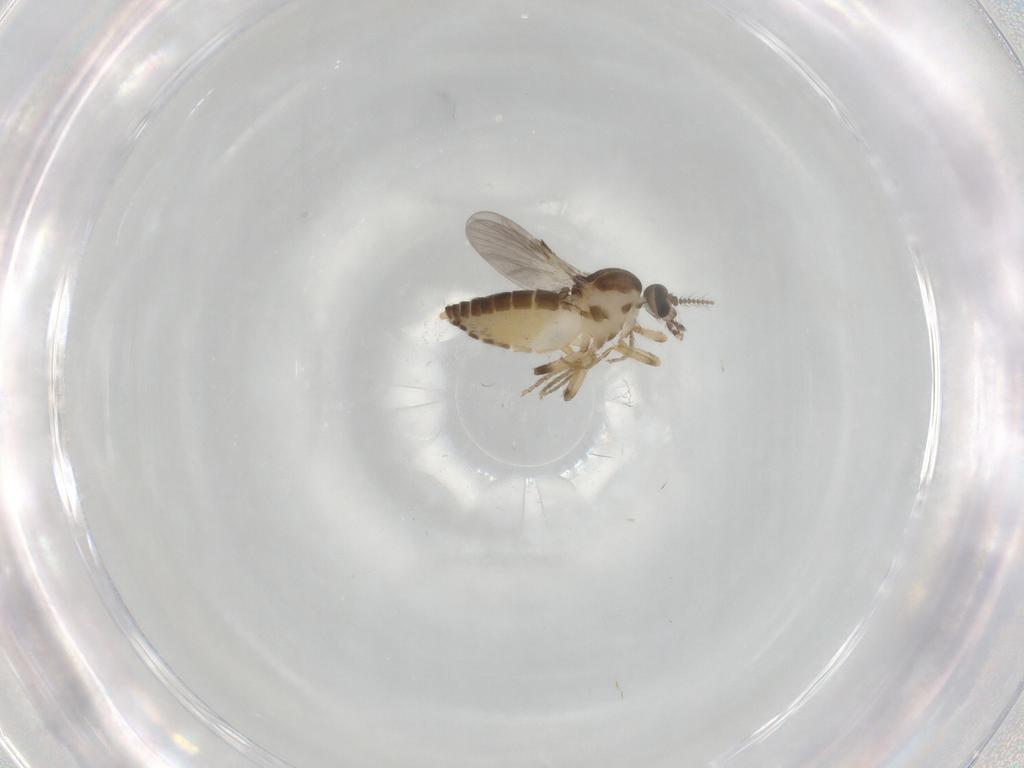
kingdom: Animalia
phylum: Arthropoda
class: Insecta
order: Diptera
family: Ceratopogonidae
